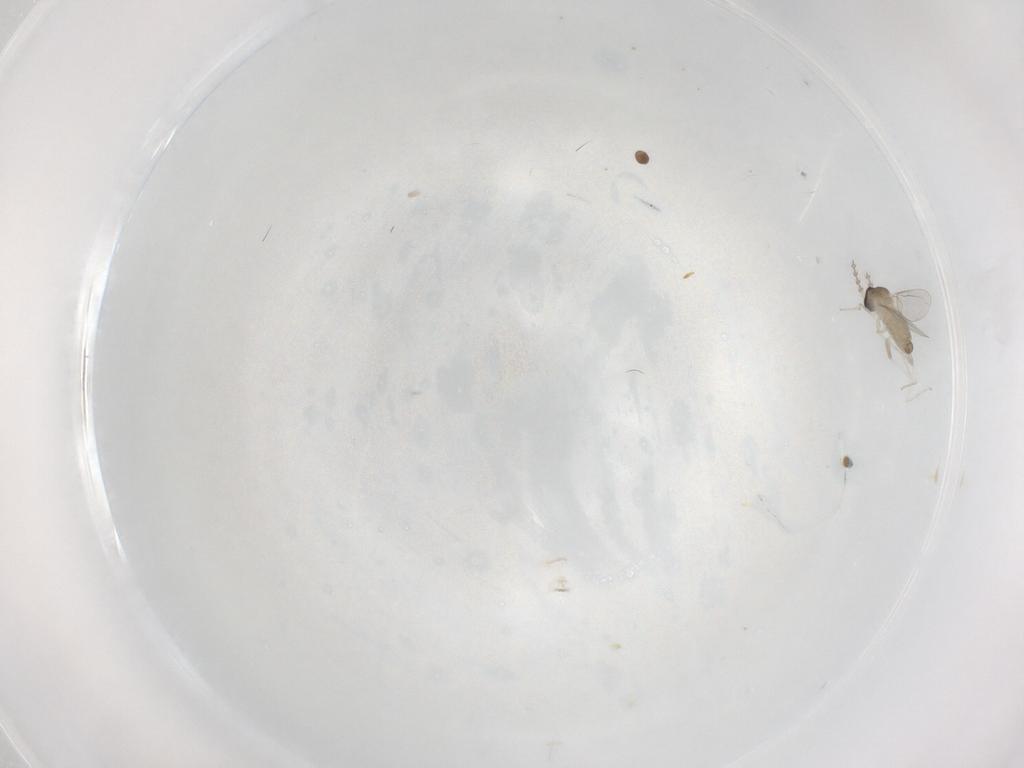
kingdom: Animalia
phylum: Arthropoda
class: Insecta
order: Diptera
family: Cecidomyiidae
